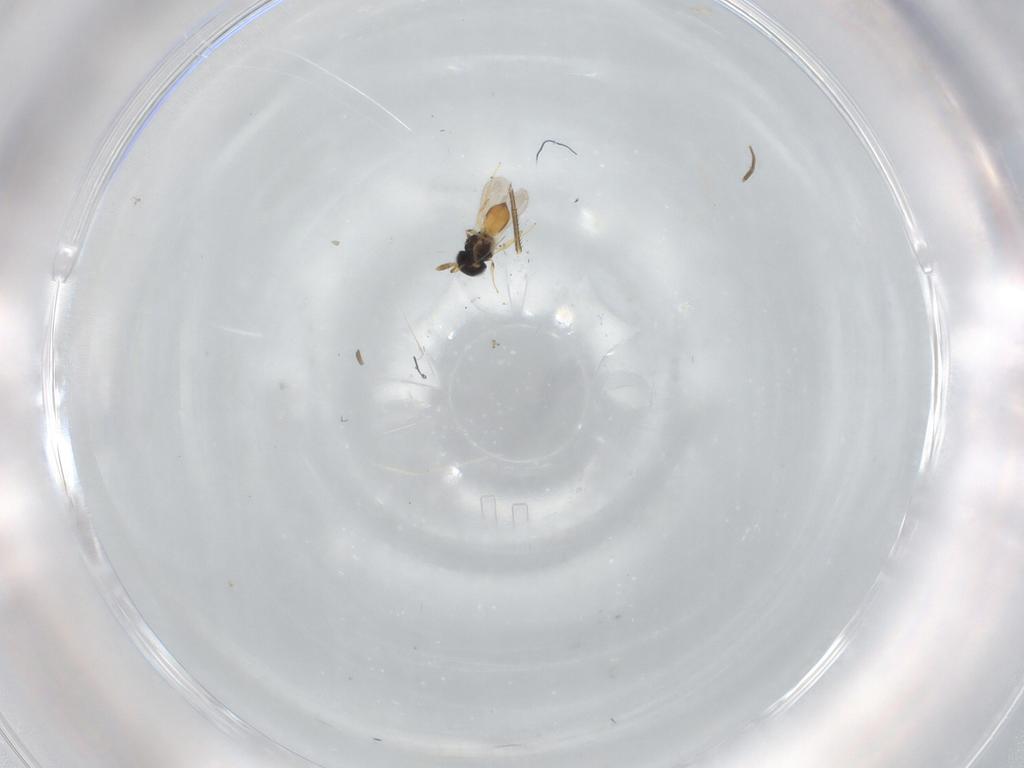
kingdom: Animalia
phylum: Arthropoda
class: Insecta
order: Hymenoptera
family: Scelionidae
